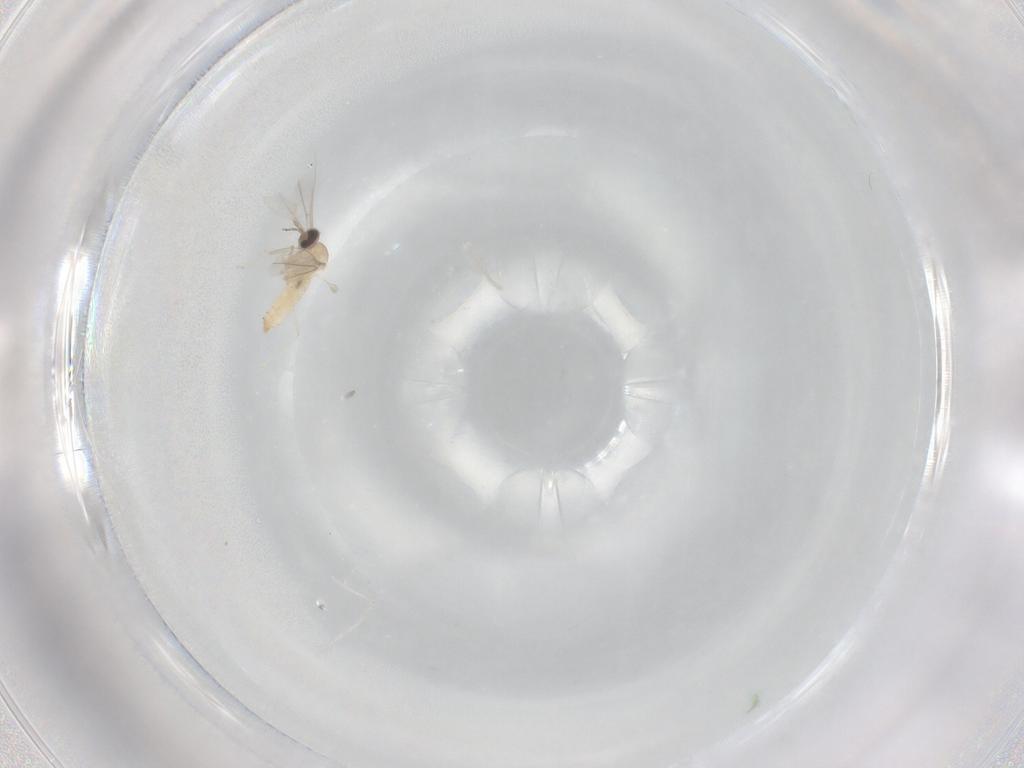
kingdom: Animalia
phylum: Arthropoda
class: Insecta
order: Diptera
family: Cecidomyiidae
